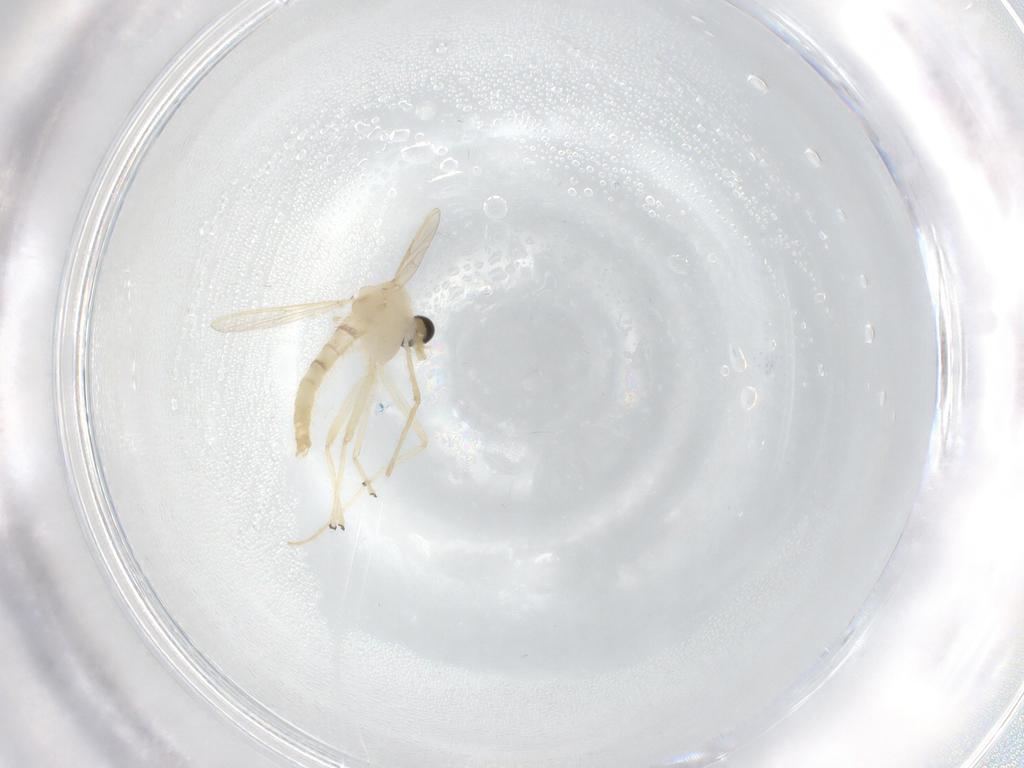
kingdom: Animalia
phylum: Arthropoda
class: Insecta
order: Diptera
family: Chironomidae
